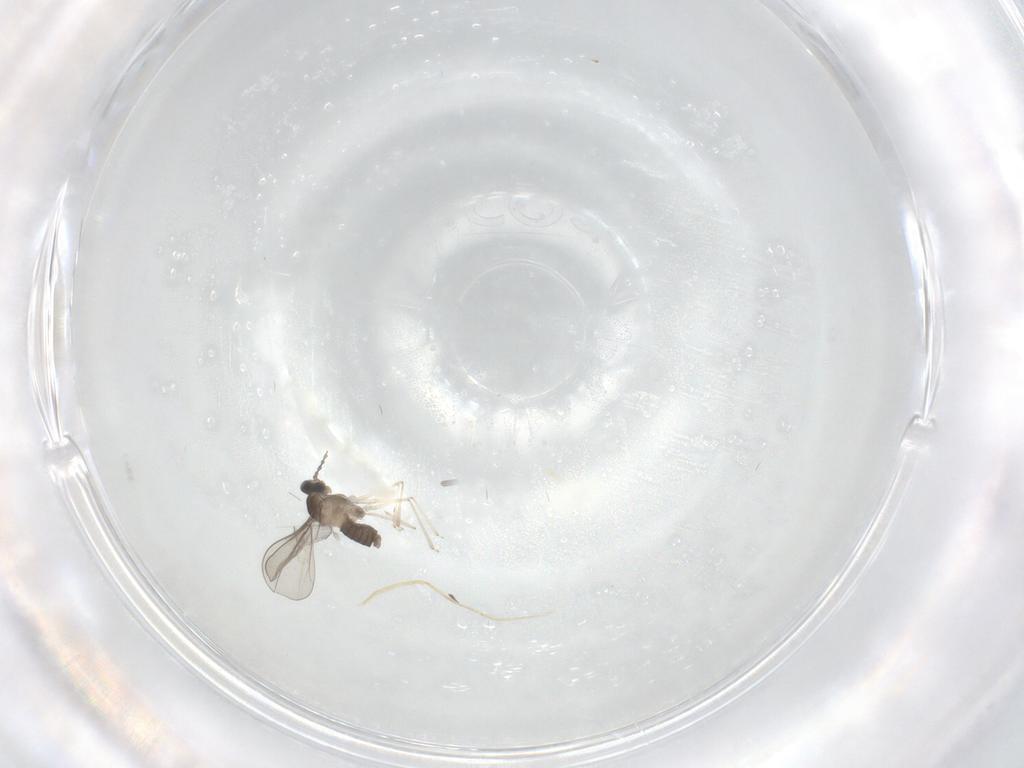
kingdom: Animalia
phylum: Arthropoda
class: Insecta
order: Diptera
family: Cecidomyiidae
